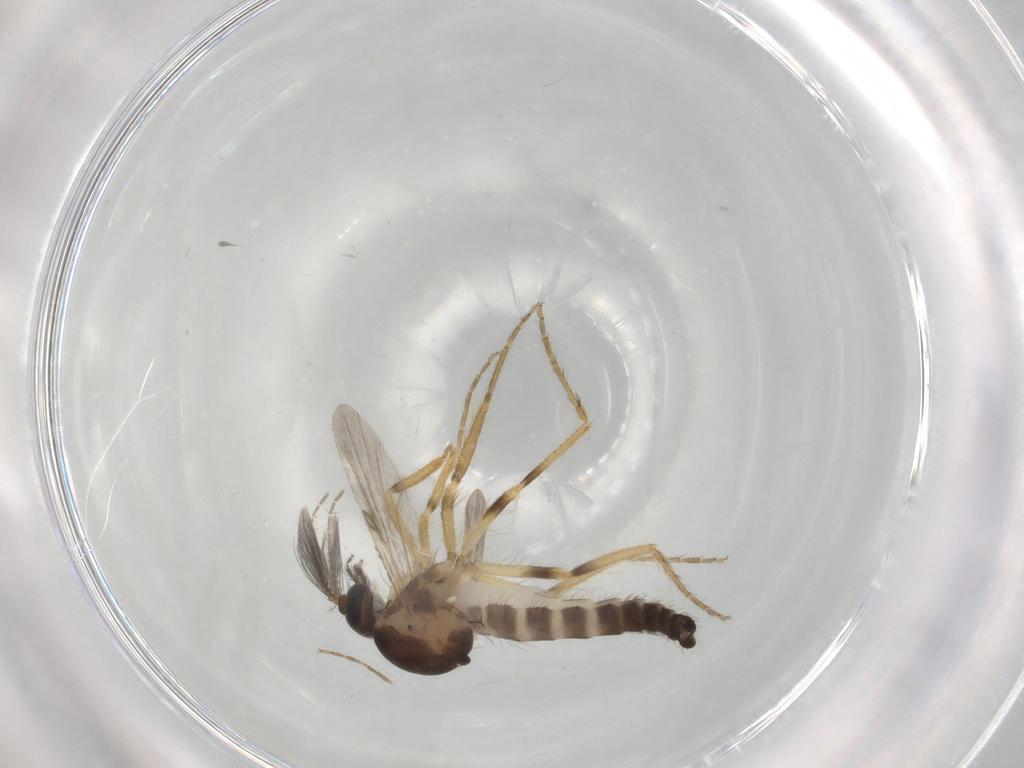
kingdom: Animalia
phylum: Arthropoda
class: Insecta
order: Diptera
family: Ceratopogonidae
